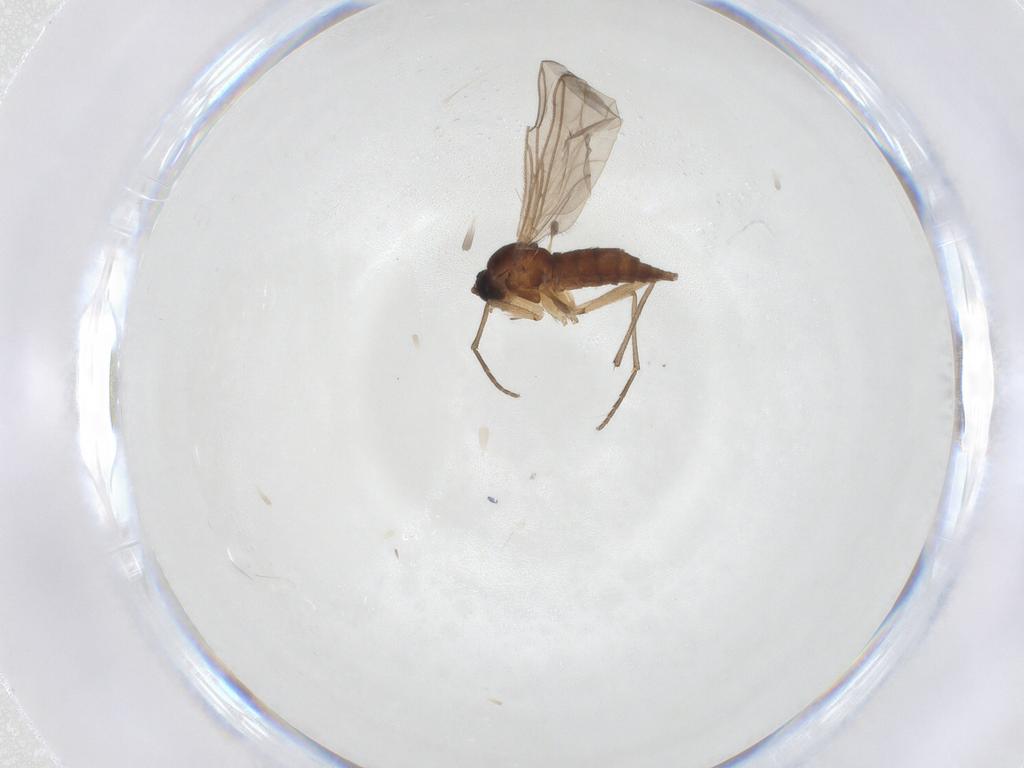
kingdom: Animalia
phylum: Arthropoda
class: Insecta
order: Diptera
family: Sciaridae
